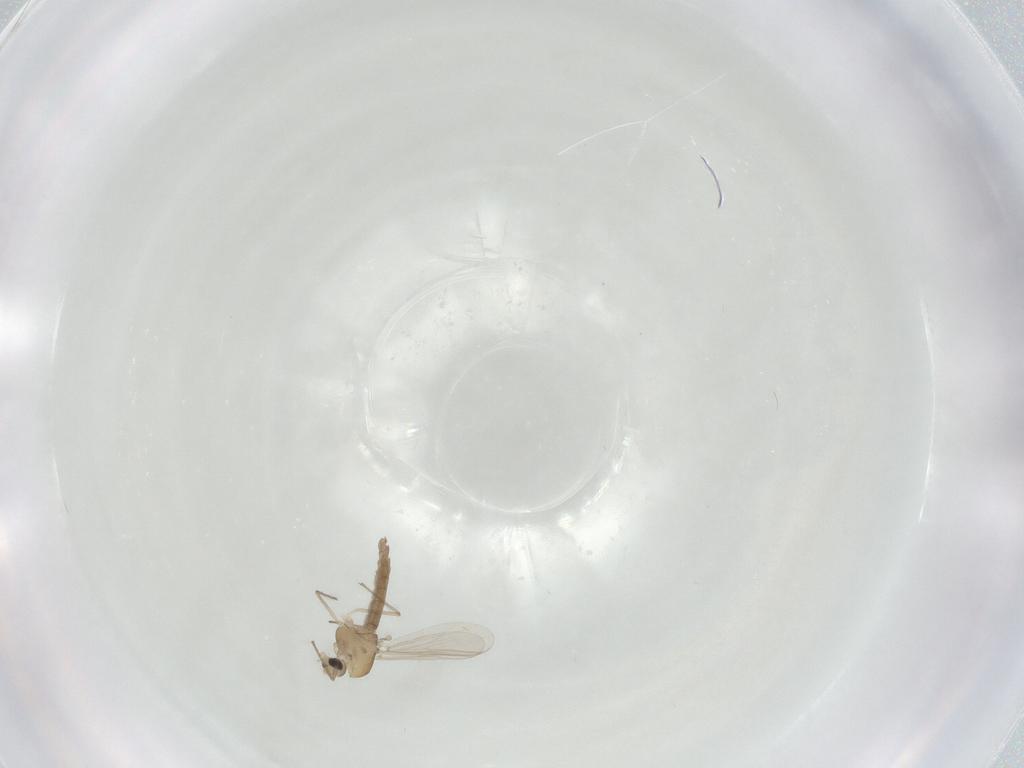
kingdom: Animalia
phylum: Arthropoda
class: Insecta
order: Diptera
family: Chironomidae
